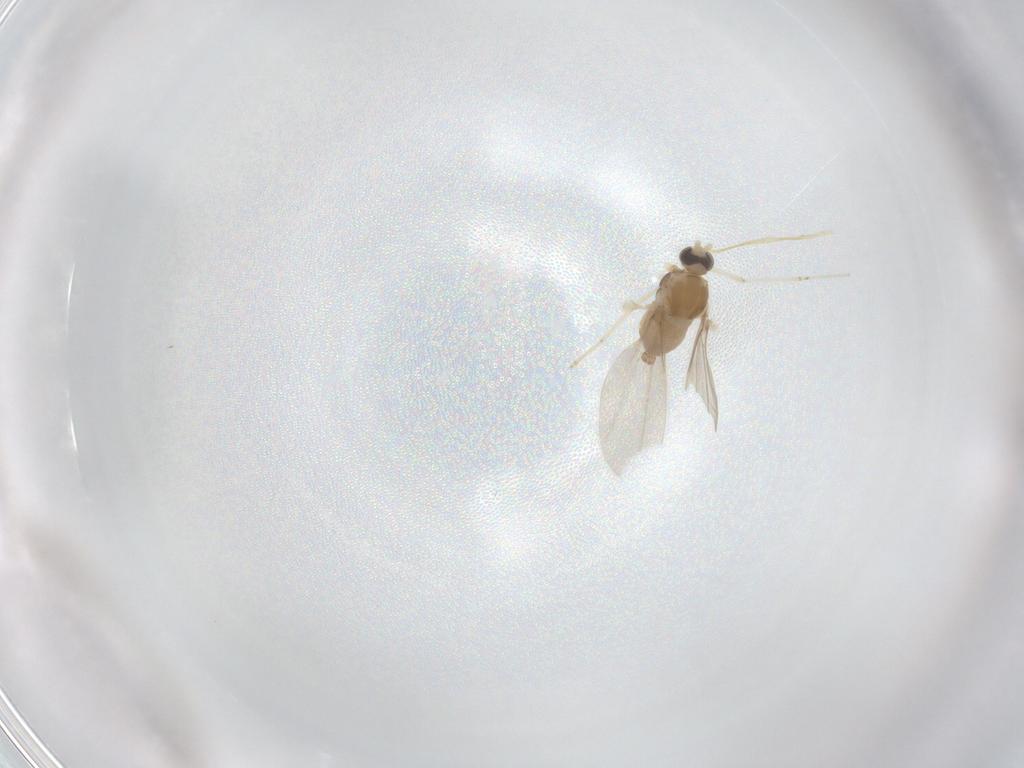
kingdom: Animalia
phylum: Arthropoda
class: Insecta
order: Diptera
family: Cecidomyiidae
